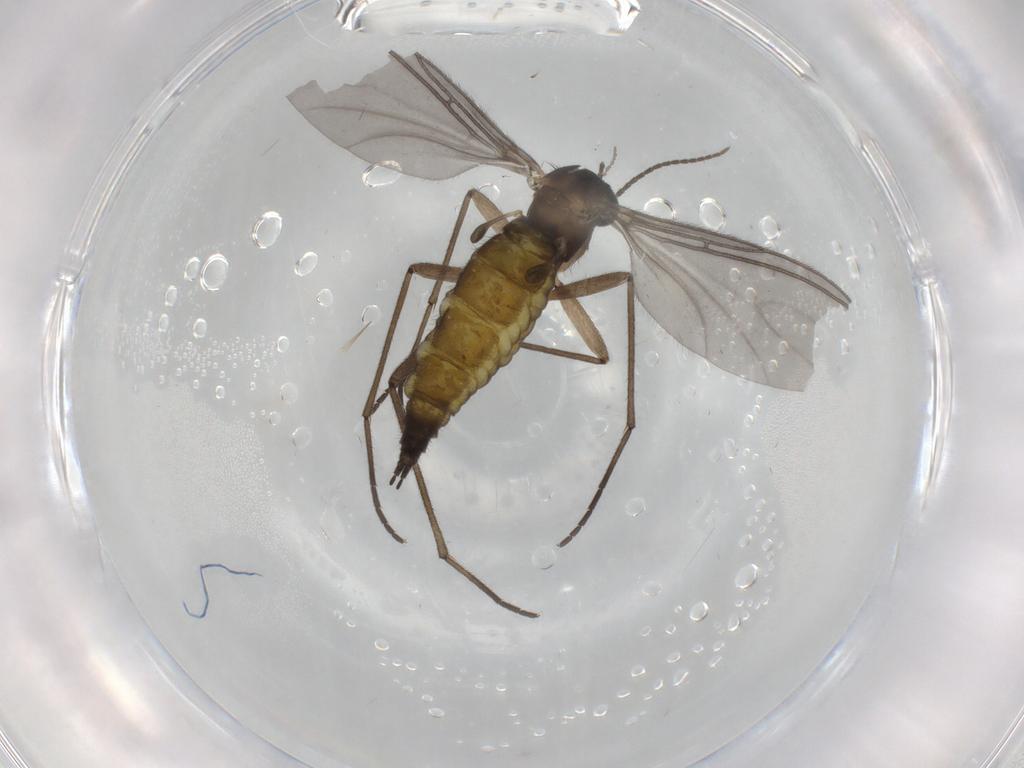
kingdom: Animalia
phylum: Arthropoda
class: Insecta
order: Diptera
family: Sciaridae
